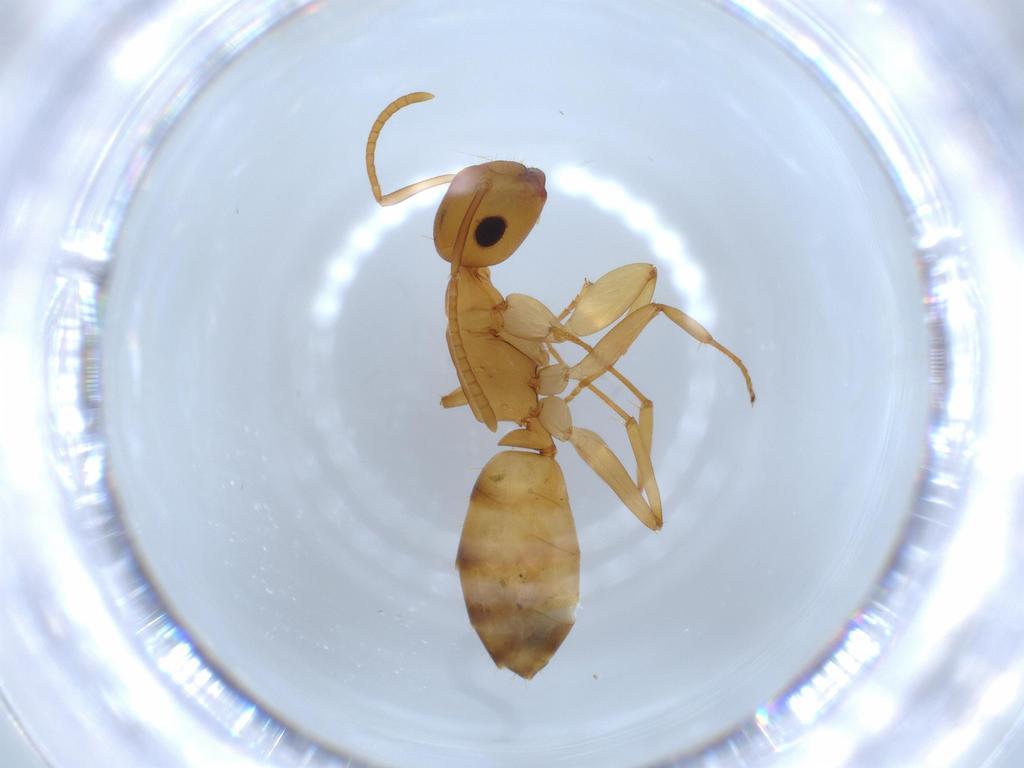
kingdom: Animalia
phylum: Arthropoda
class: Insecta
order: Hymenoptera
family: Formicidae
